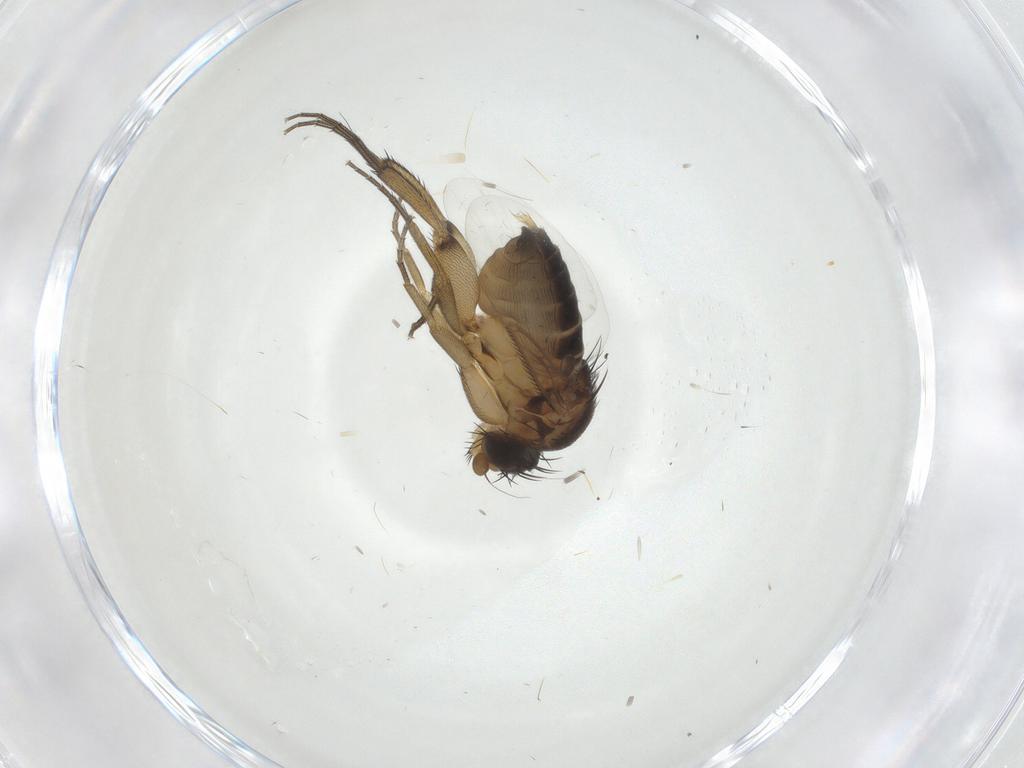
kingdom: Animalia
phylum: Arthropoda
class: Insecta
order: Diptera
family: Phoridae
